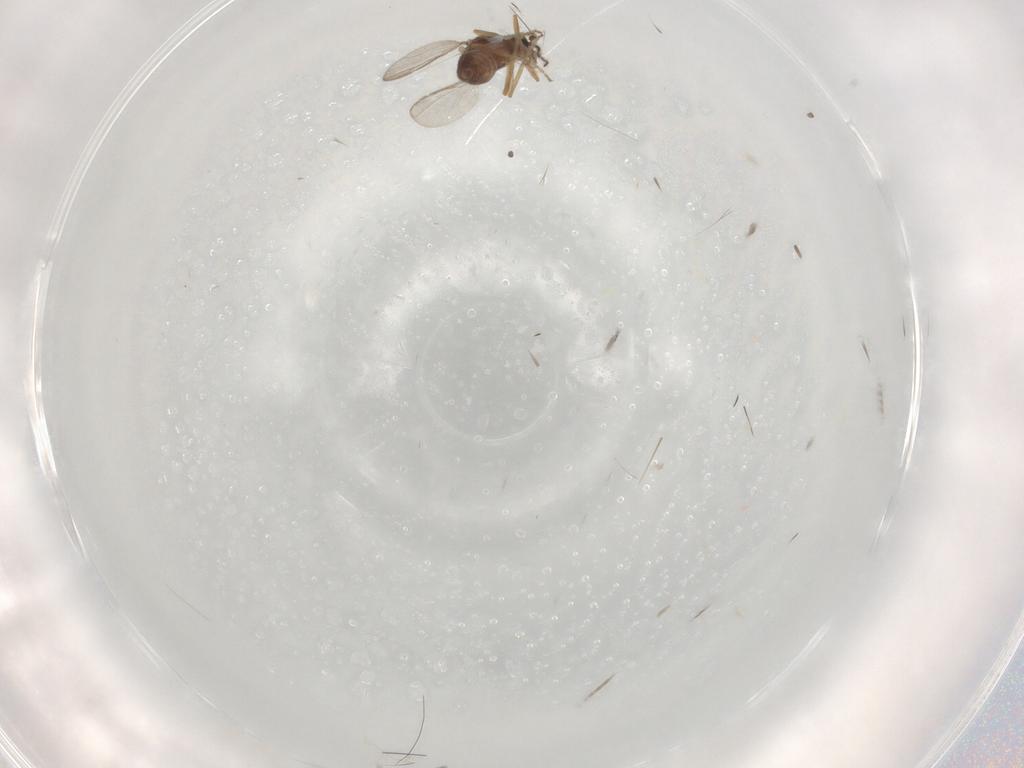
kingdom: Animalia
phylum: Arthropoda
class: Insecta
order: Diptera
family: Ceratopogonidae
